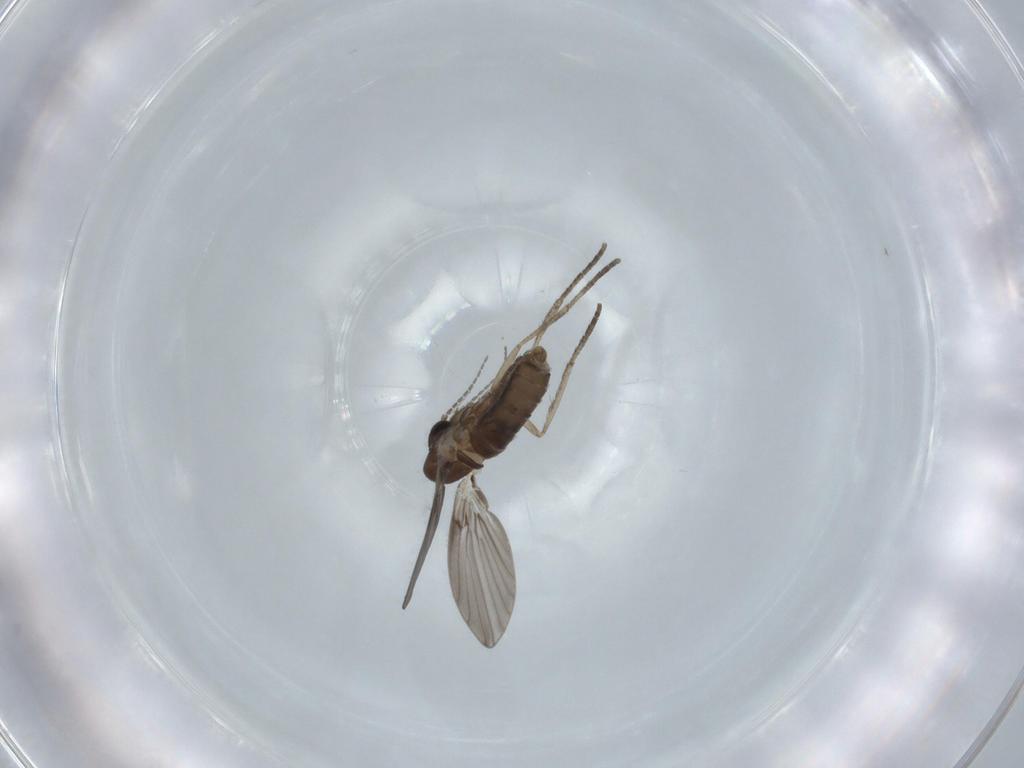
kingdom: Animalia
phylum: Arthropoda
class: Insecta
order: Diptera
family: Psychodidae
